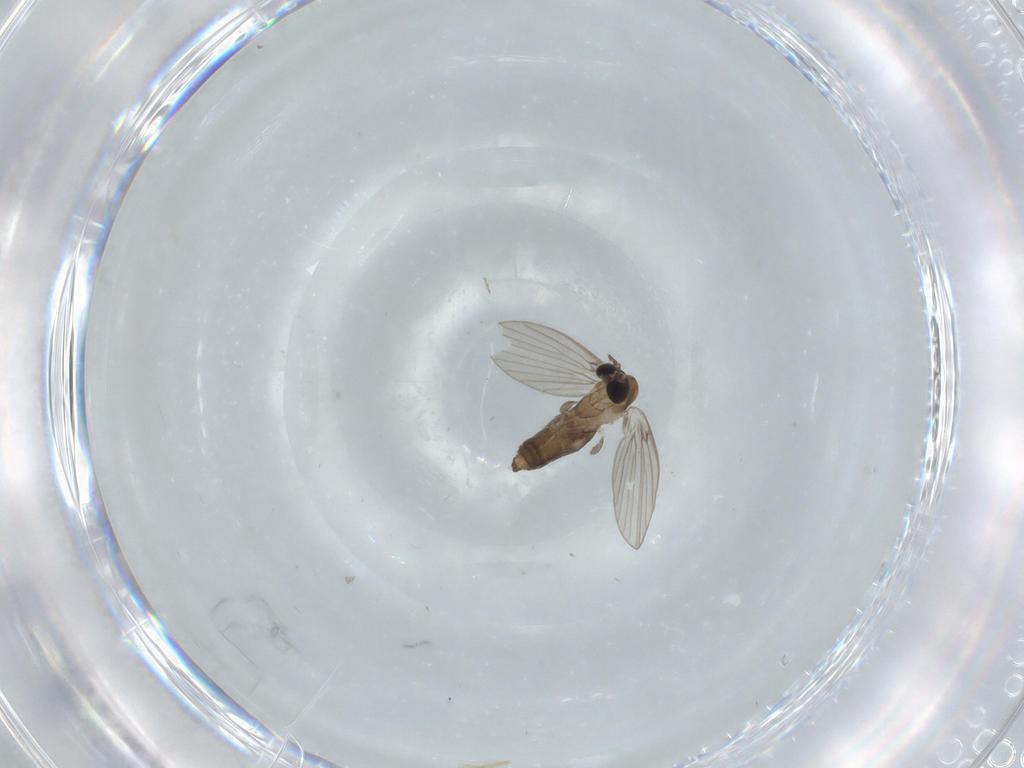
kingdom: Animalia
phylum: Arthropoda
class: Insecta
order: Diptera
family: Psychodidae
